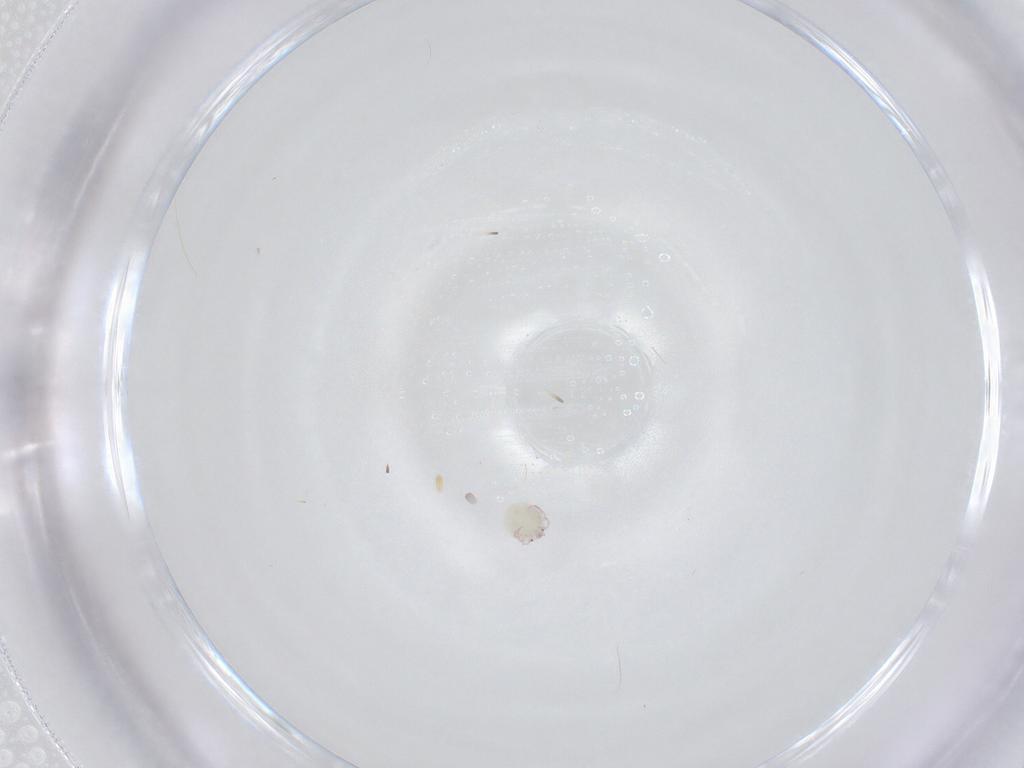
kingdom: Animalia
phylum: Arthropoda
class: Arachnida
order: Trombidiformes
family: Arrenuridae
